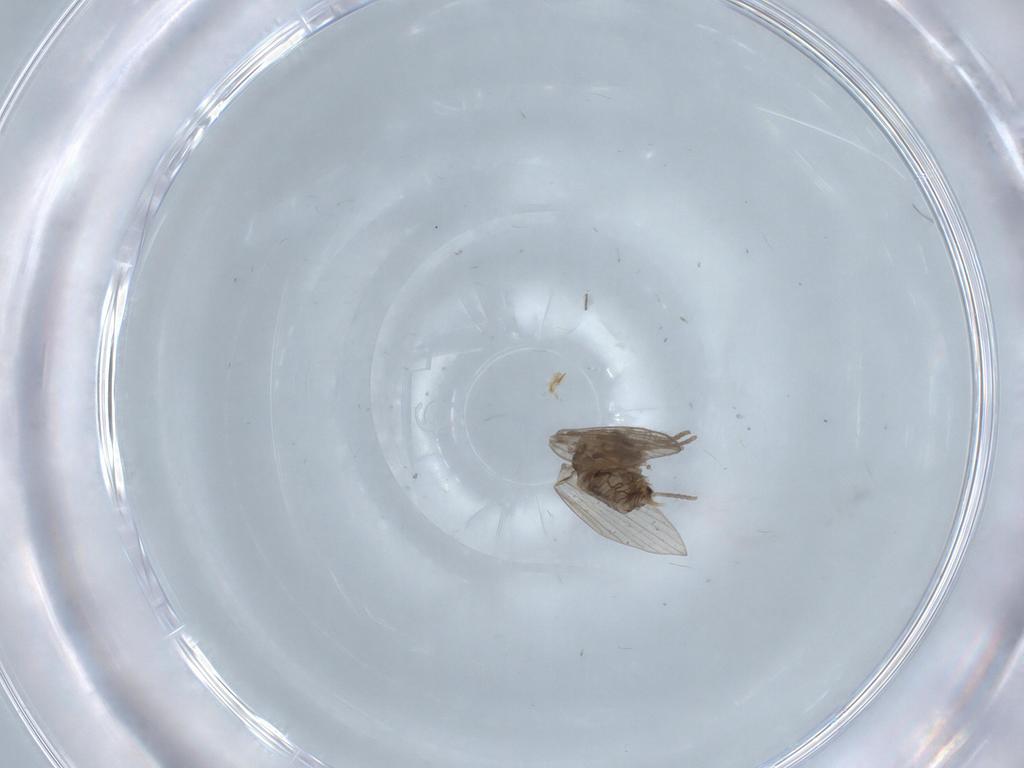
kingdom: Animalia
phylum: Arthropoda
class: Insecta
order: Diptera
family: Psychodidae
